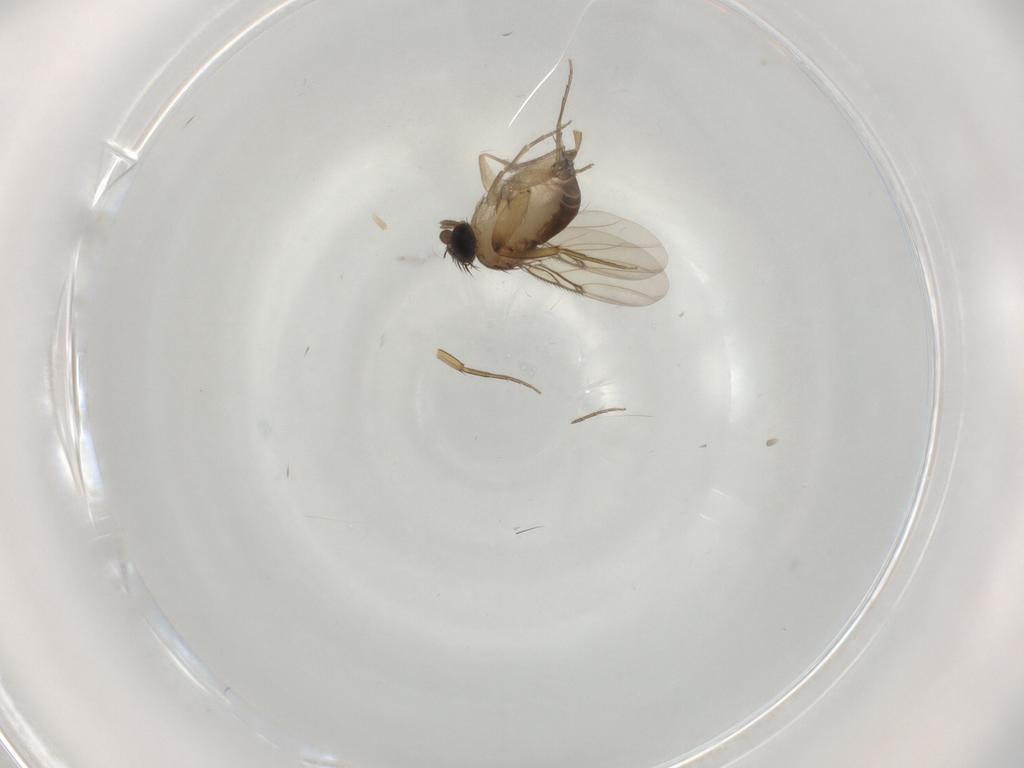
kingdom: Animalia
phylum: Arthropoda
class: Insecta
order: Diptera
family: Phoridae
